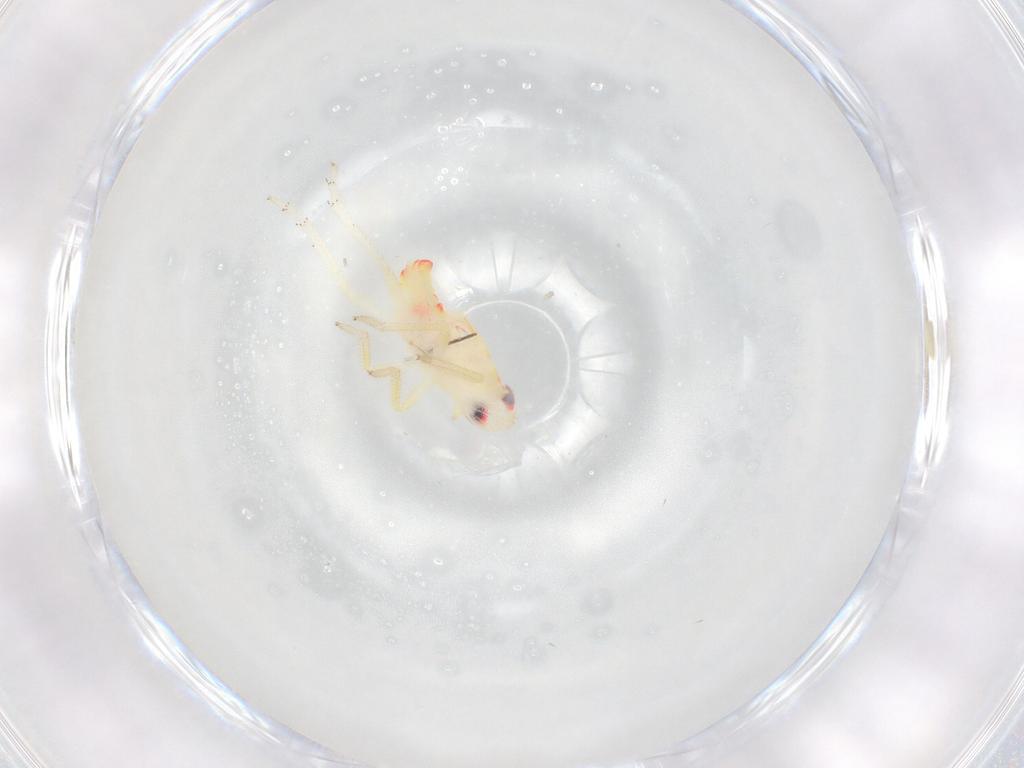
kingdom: Animalia
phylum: Arthropoda
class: Insecta
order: Hemiptera
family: Tropiduchidae
